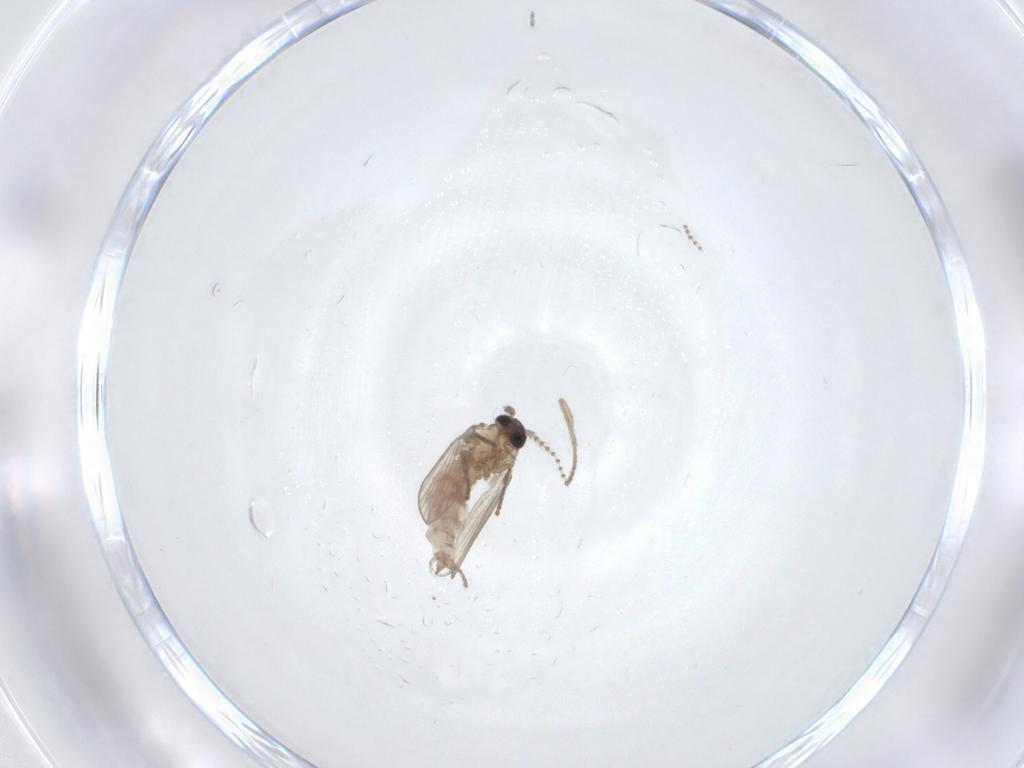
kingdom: Animalia
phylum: Arthropoda
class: Insecta
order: Diptera
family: Psychodidae
